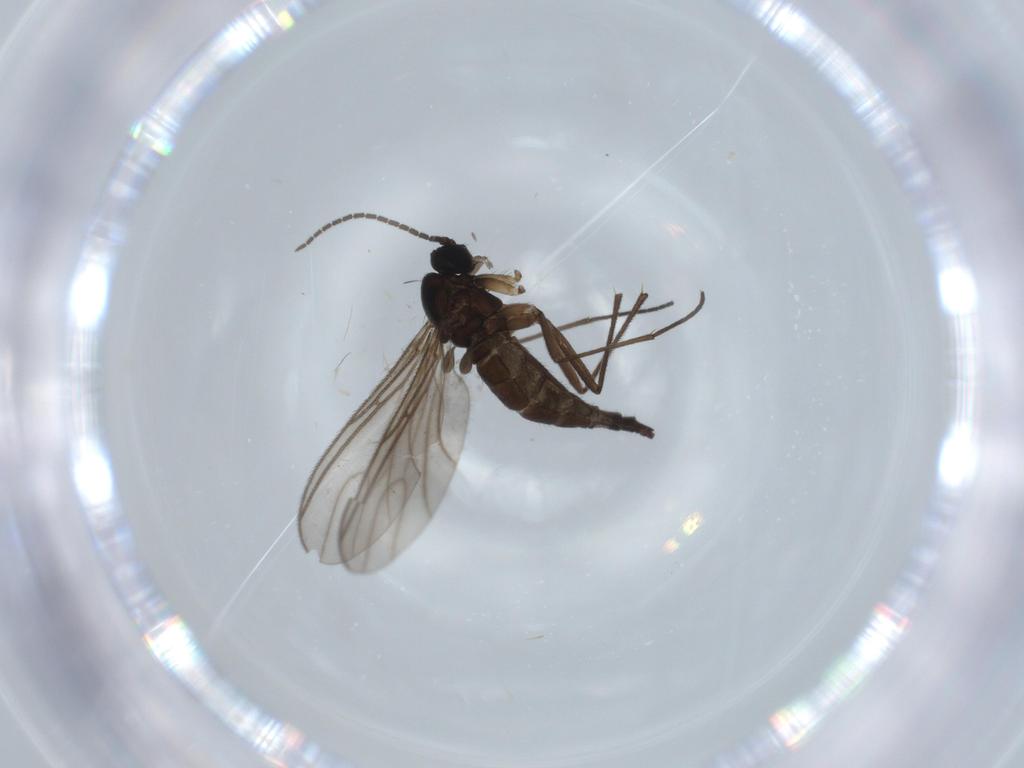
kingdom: Animalia
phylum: Arthropoda
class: Insecta
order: Diptera
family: Sciaridae
